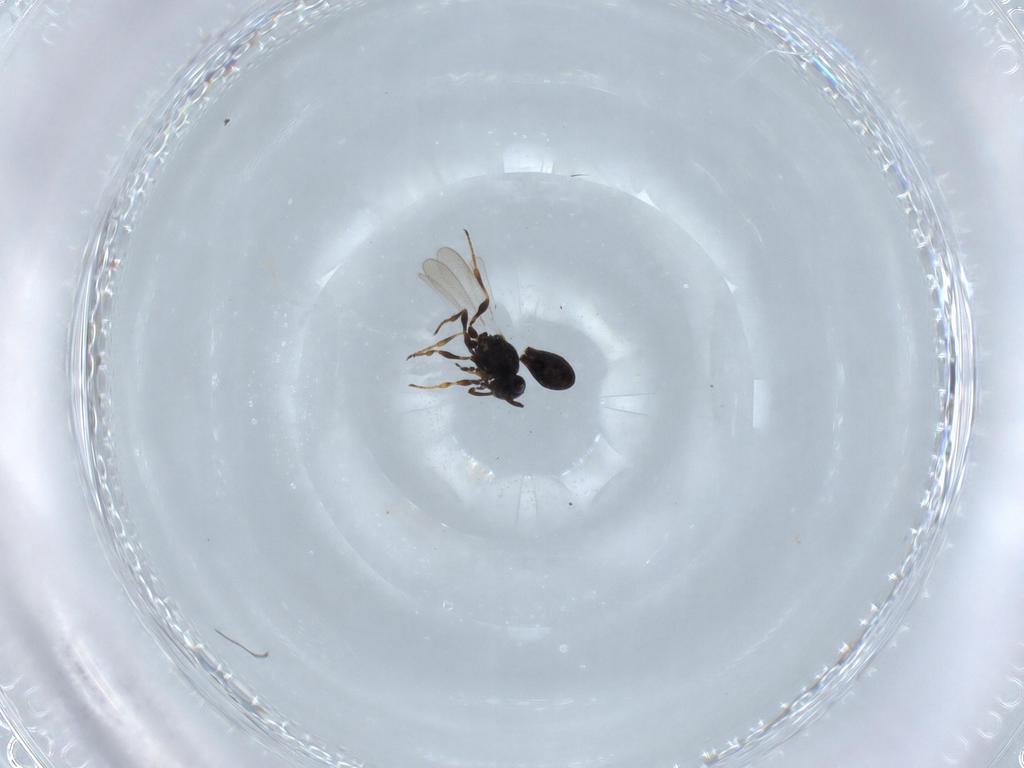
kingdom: Animalia
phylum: Arthropoda
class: Insecta
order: Hymenoptera
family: Platygastridae
